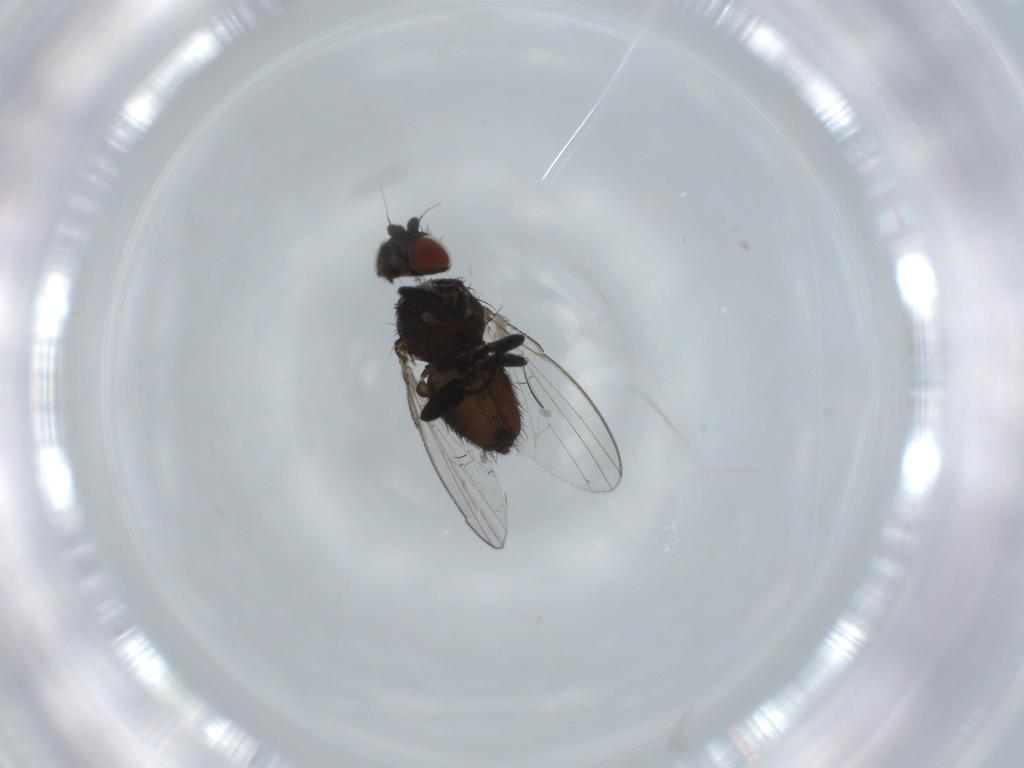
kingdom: Animalia
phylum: Arthropoda
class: Insecta
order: Diptera
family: Milichiidae
